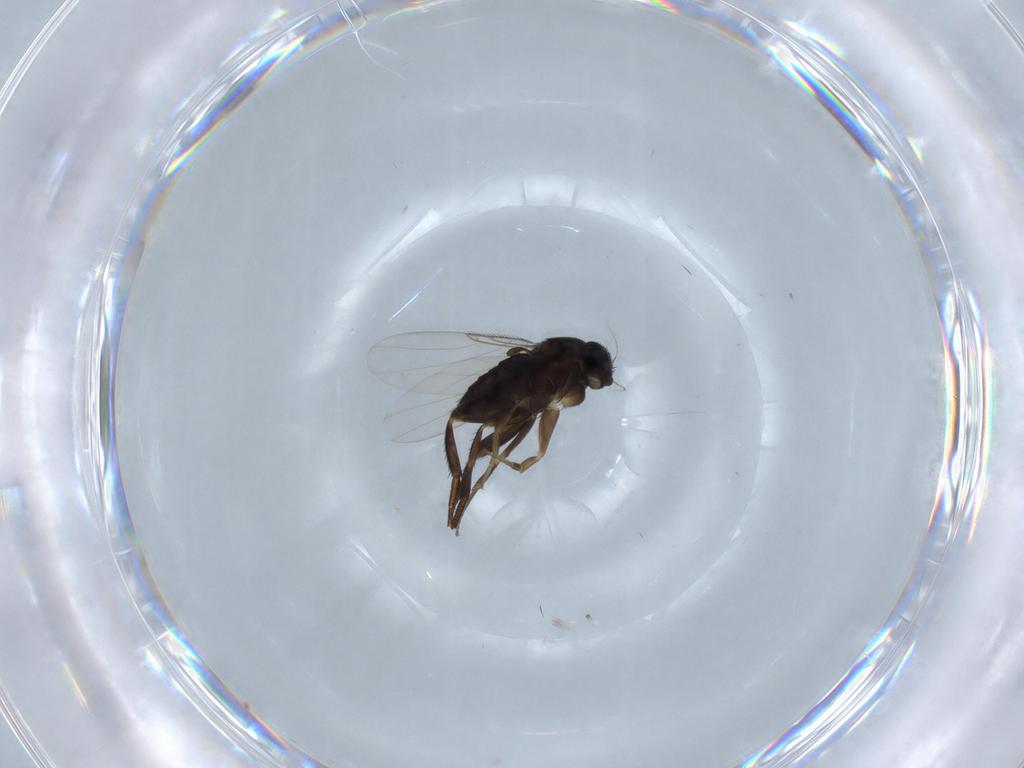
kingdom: Animalia
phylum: Arthropoda
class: Insecta
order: Diptera
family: Phoridae
